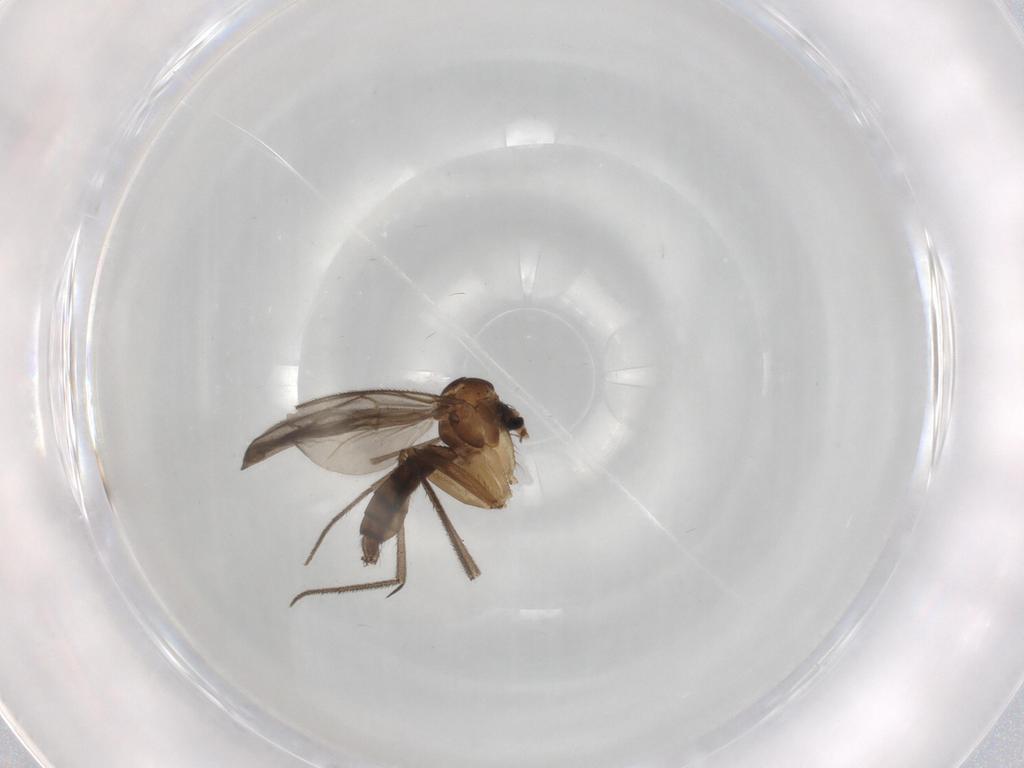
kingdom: Animalia
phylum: Arthropoda
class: Insecta
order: Diptera
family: Mycetophilidae
